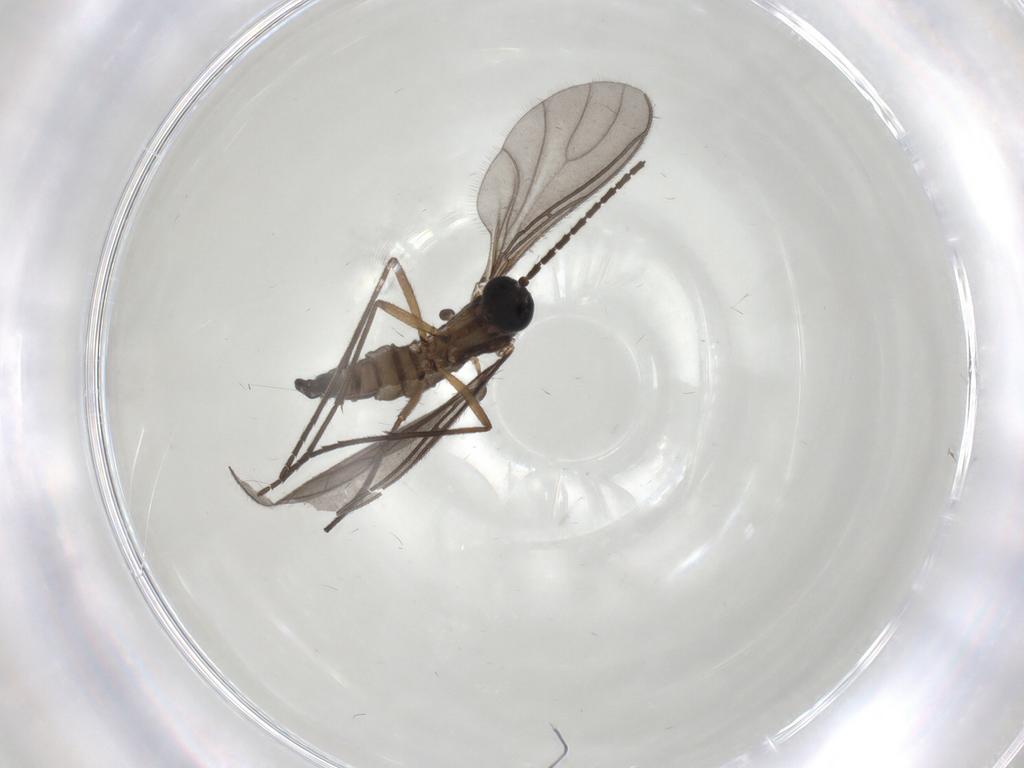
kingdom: Animalia
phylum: Arthropoda
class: Insecta
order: Diptera
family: Sciaridae
